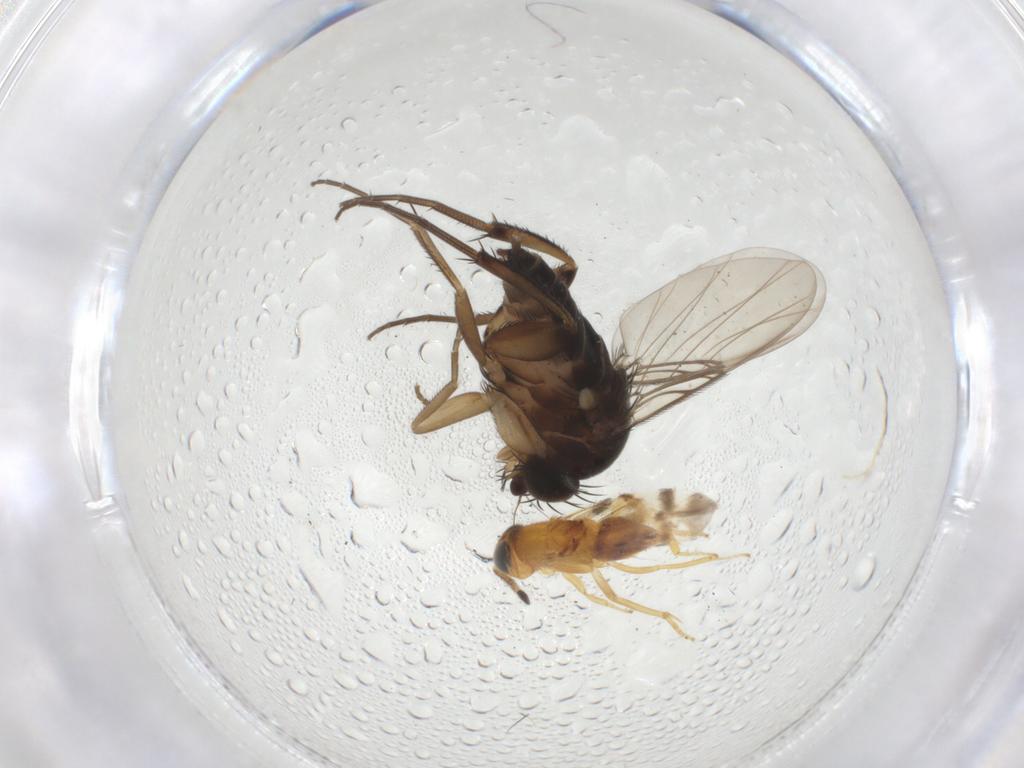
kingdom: Animalia
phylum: Arthropoda
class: Insecta
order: Diptera
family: Phoridae
